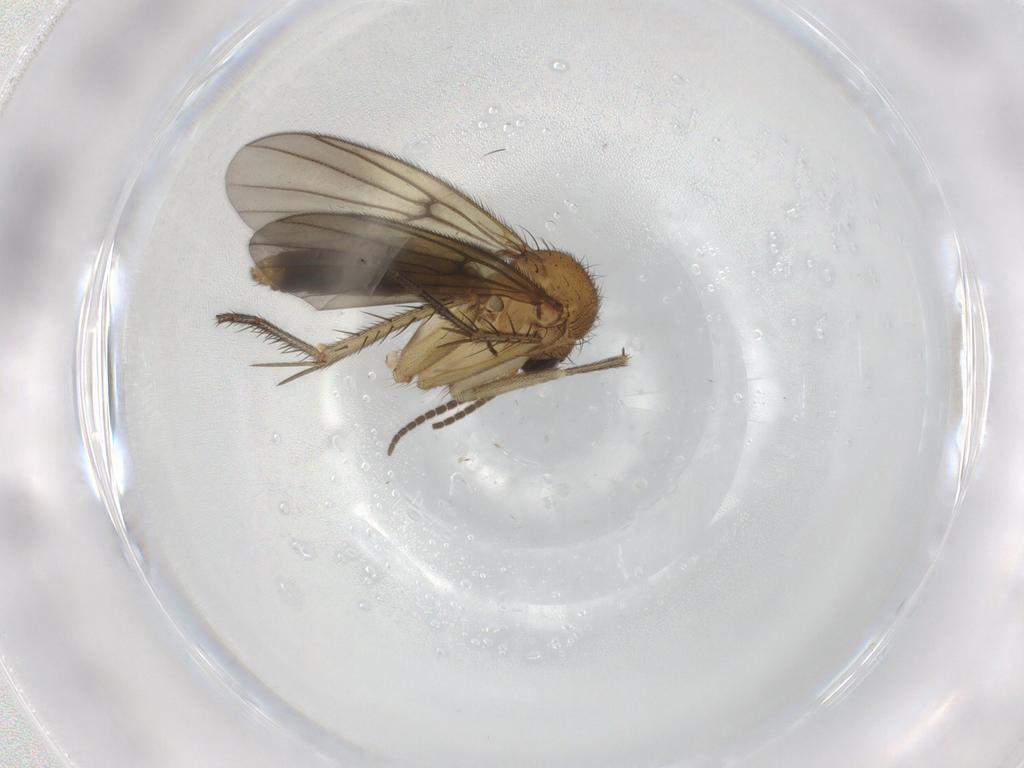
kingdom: Animalia
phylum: Arthropoda
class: Insecta
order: Diptera
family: Mycetophilidae
